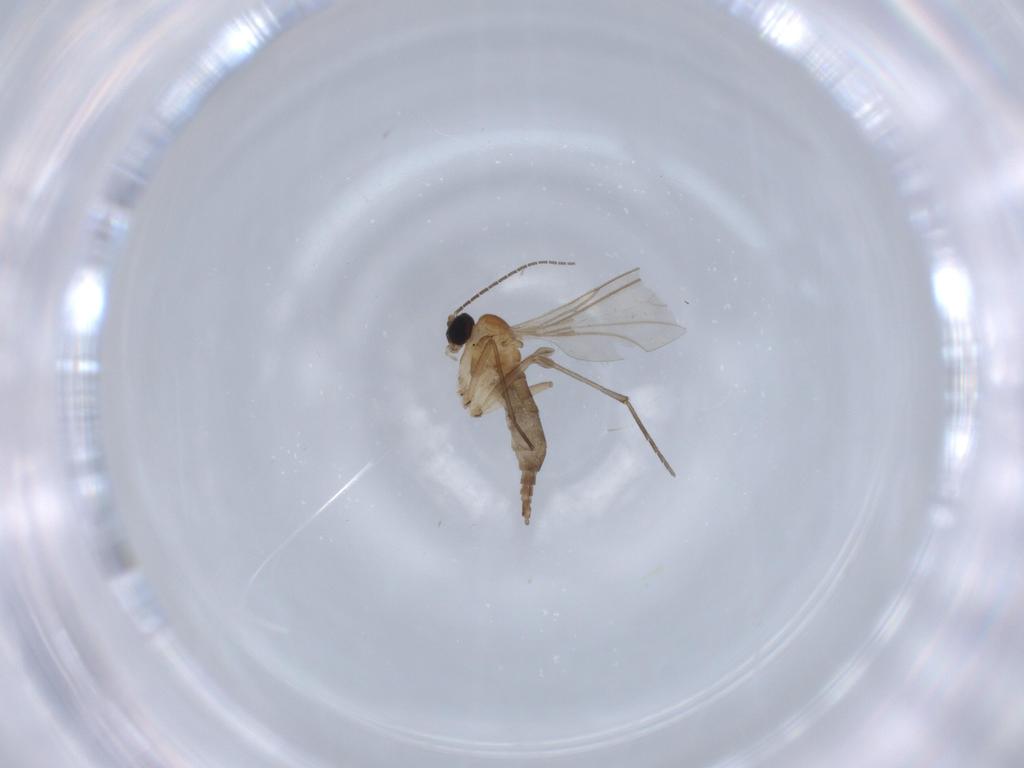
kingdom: Animalia
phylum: Arthropoda
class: Insecta
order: Diptera
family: Sciaridae
